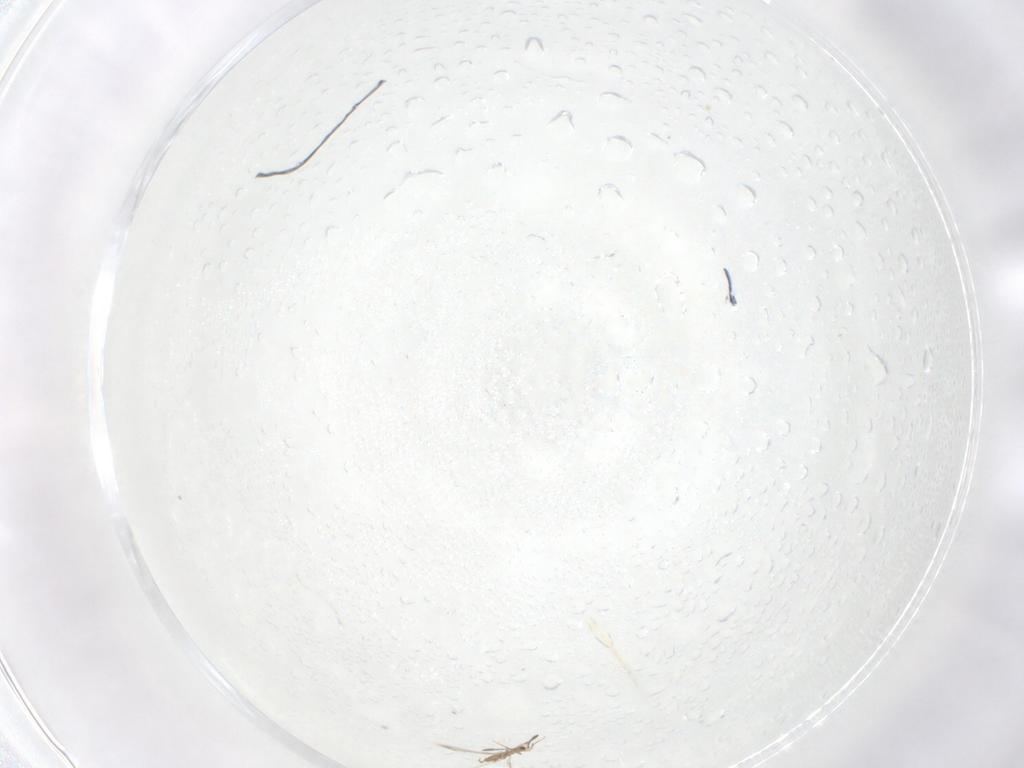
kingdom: Animalia
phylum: Arthropoda
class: Insecta
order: Hymenoptera
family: Mymaridae
